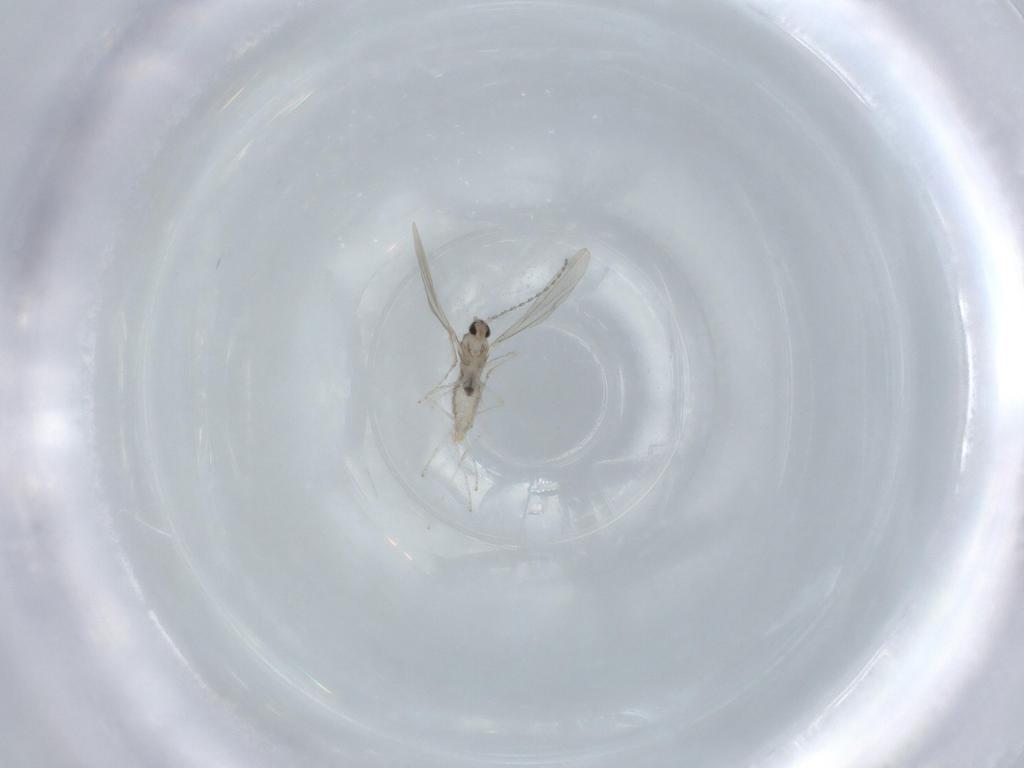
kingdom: Animalia
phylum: Arthropoda
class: Insecta
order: Diptera
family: Cecidomyiidae
